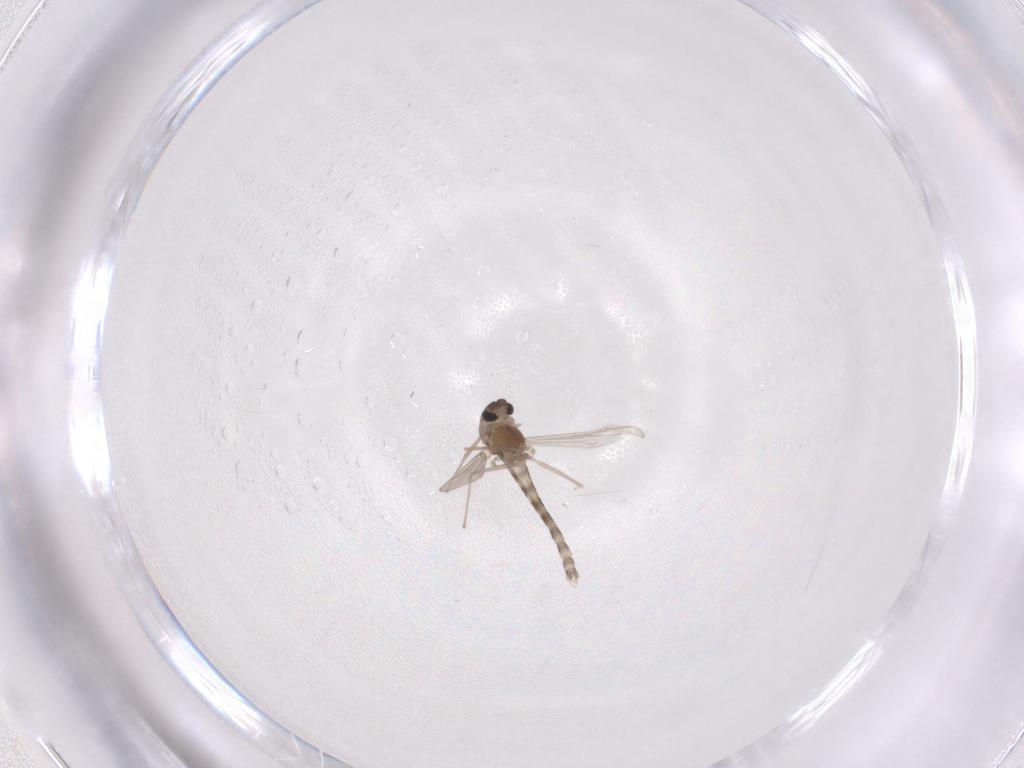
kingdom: Animalia
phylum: Arthropoda
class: Insecta
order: Diptera
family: Chironomidae
